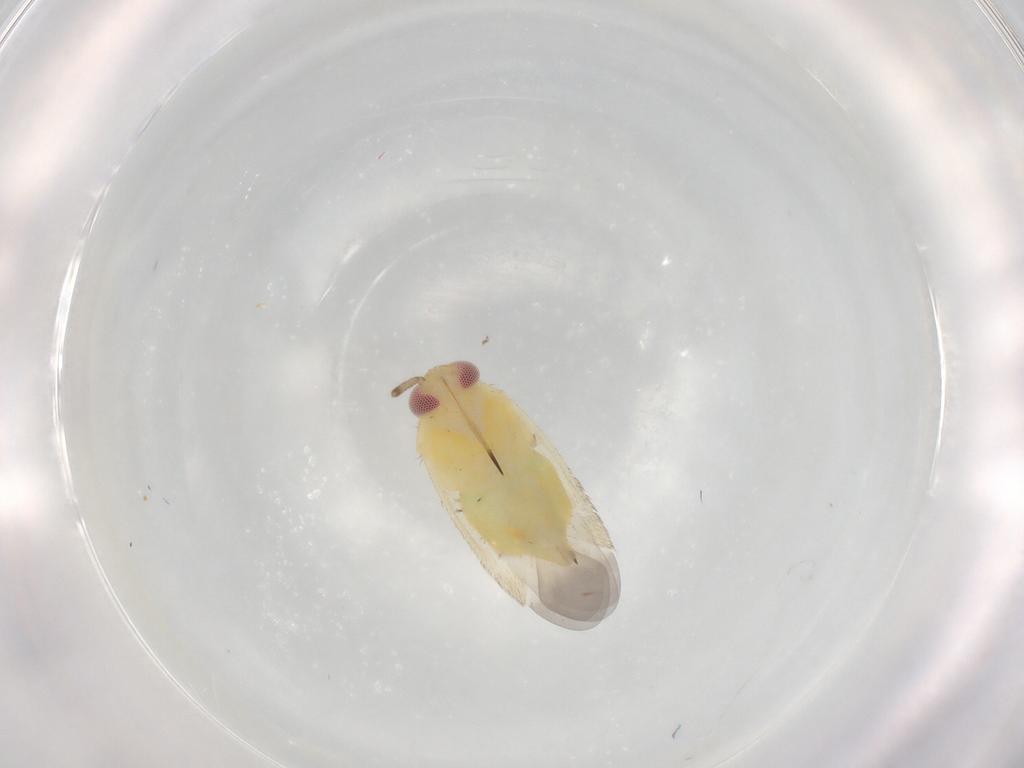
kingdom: Animalia
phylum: Arthropoda
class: Insecta
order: Hemiptera
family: Miridae
